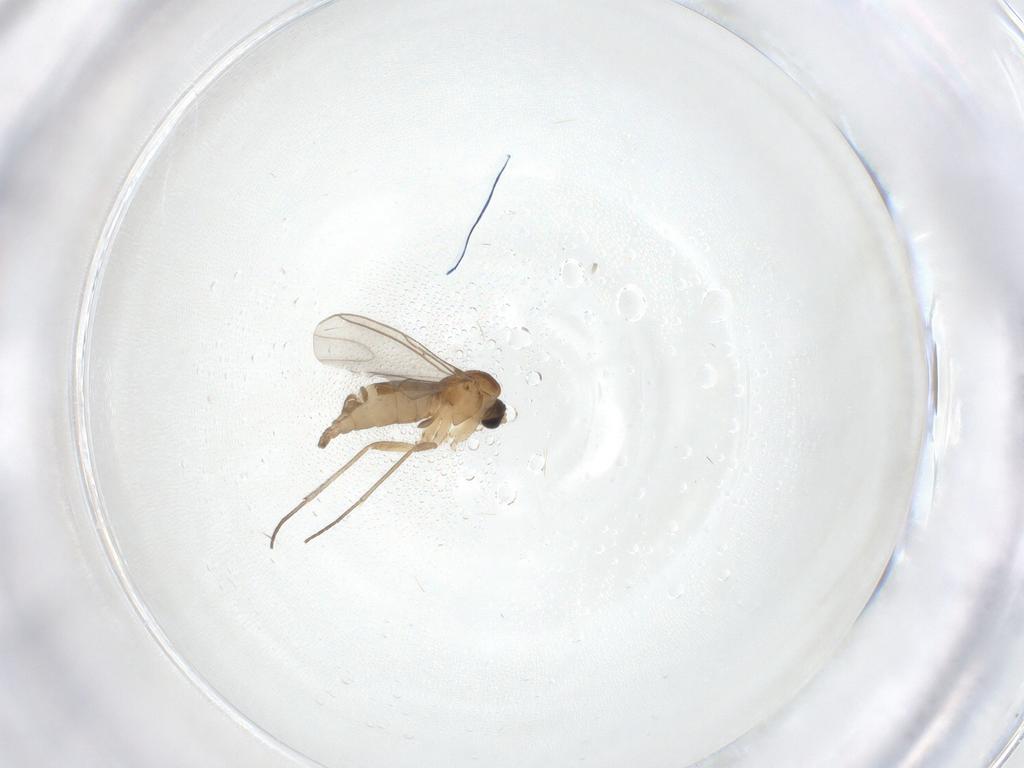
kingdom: Animalia
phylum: Arthropoda
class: Insecta
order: Diptera
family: Sciaridae
